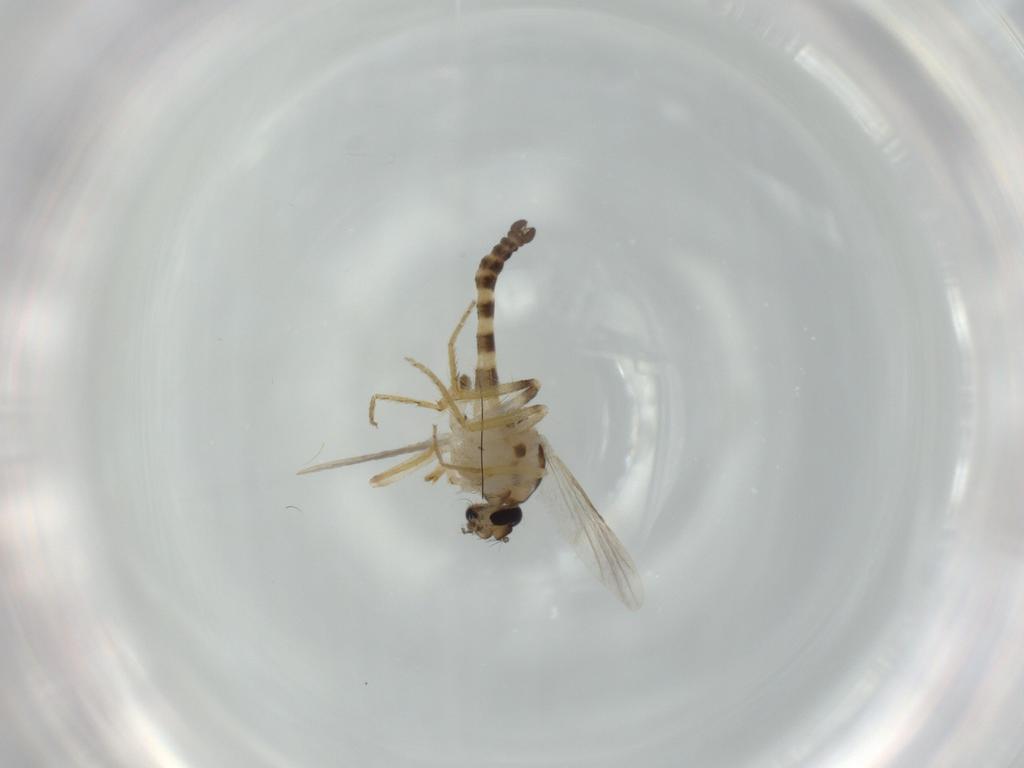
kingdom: Animalia
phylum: Arthropoda
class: Insecta
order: Diptera
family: Ceratopogonidae
